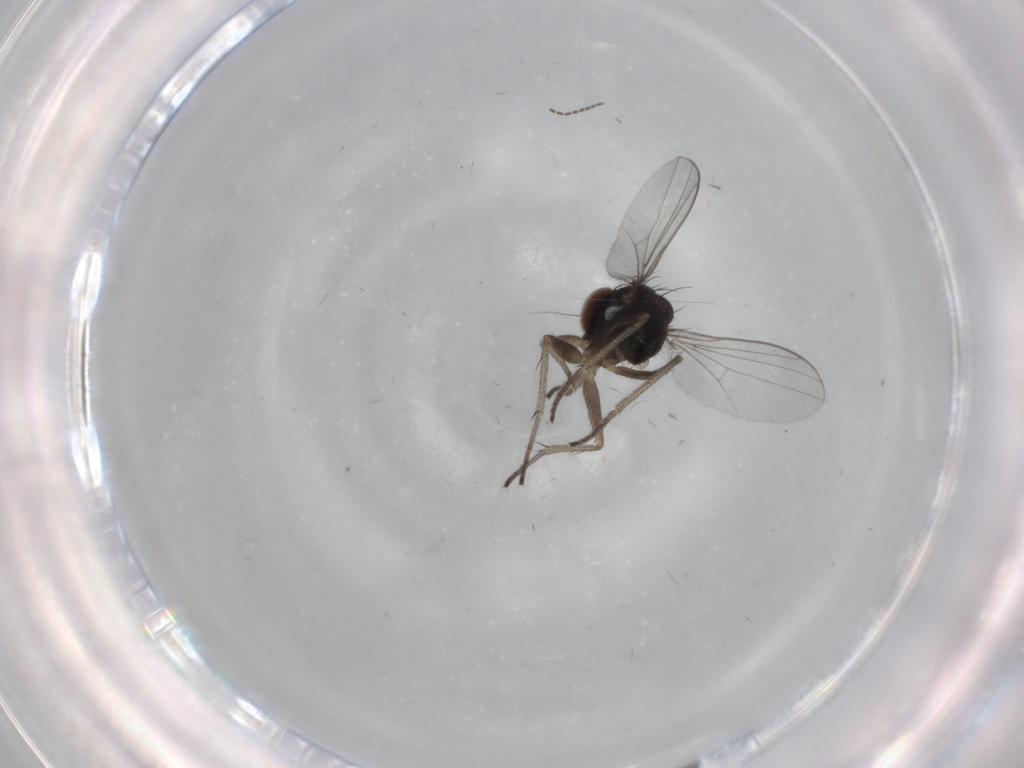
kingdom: Animalia
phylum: Arthropoda
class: Insecta
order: Diptera
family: Sciaridae
